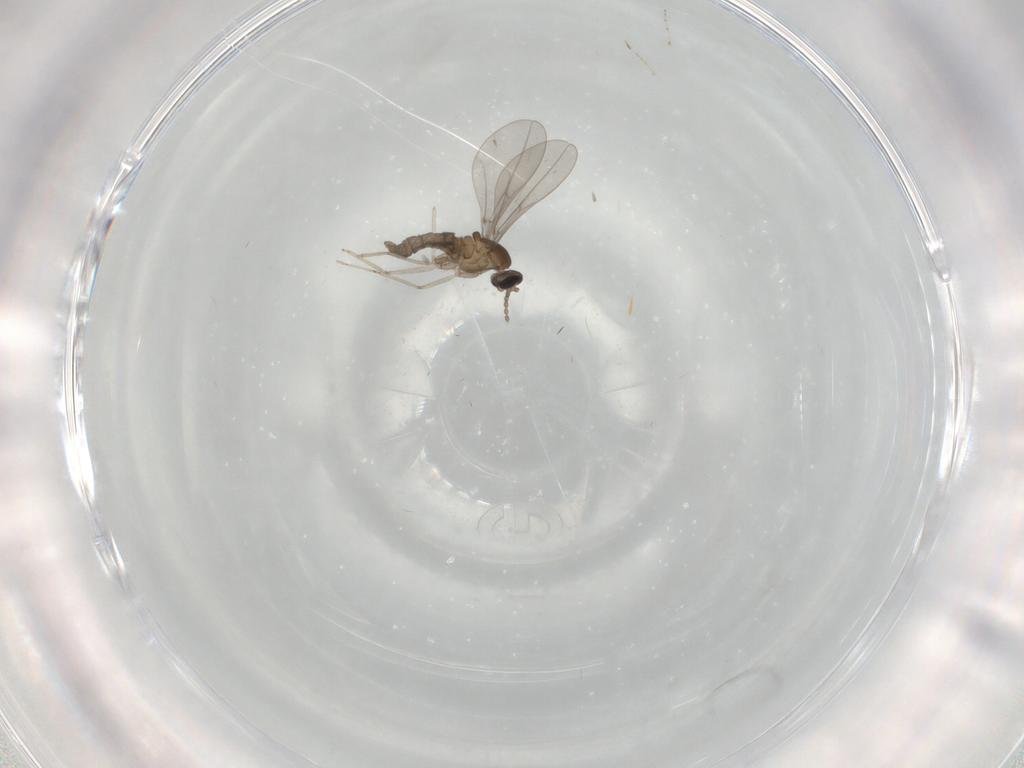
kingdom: Animalia
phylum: Arthropoda
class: Insecta
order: Diptera
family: Cecidomyiidae
